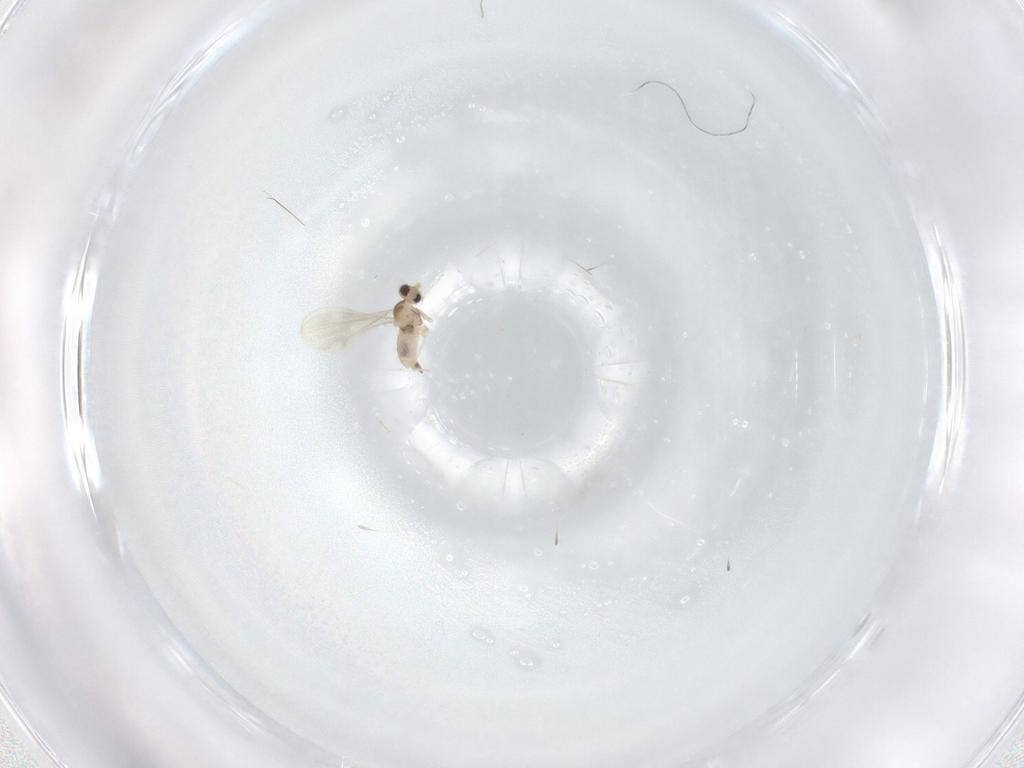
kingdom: Animalia
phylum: Arthropoda
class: Insecta
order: Diptera
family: Cecidomyiidae
